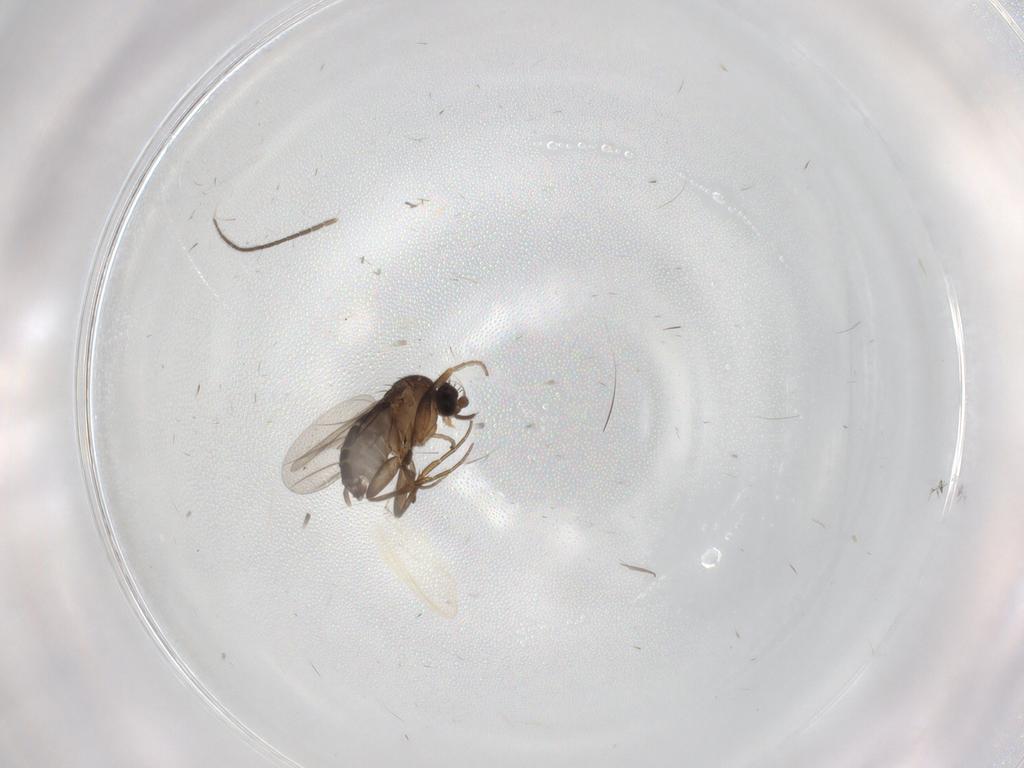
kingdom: Animalia
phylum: Arthropoda
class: Insecta
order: Diptera
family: Sciaridae
